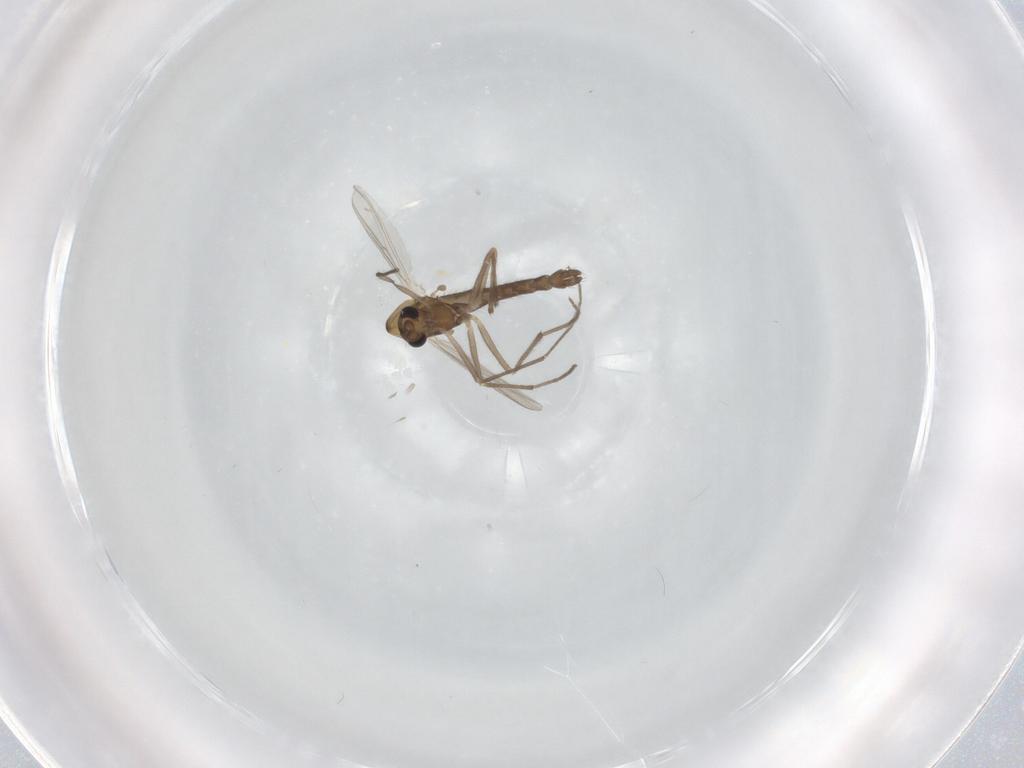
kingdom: Animalia
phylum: Arthropoda
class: Insecta
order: Diptera
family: Chironomidae
